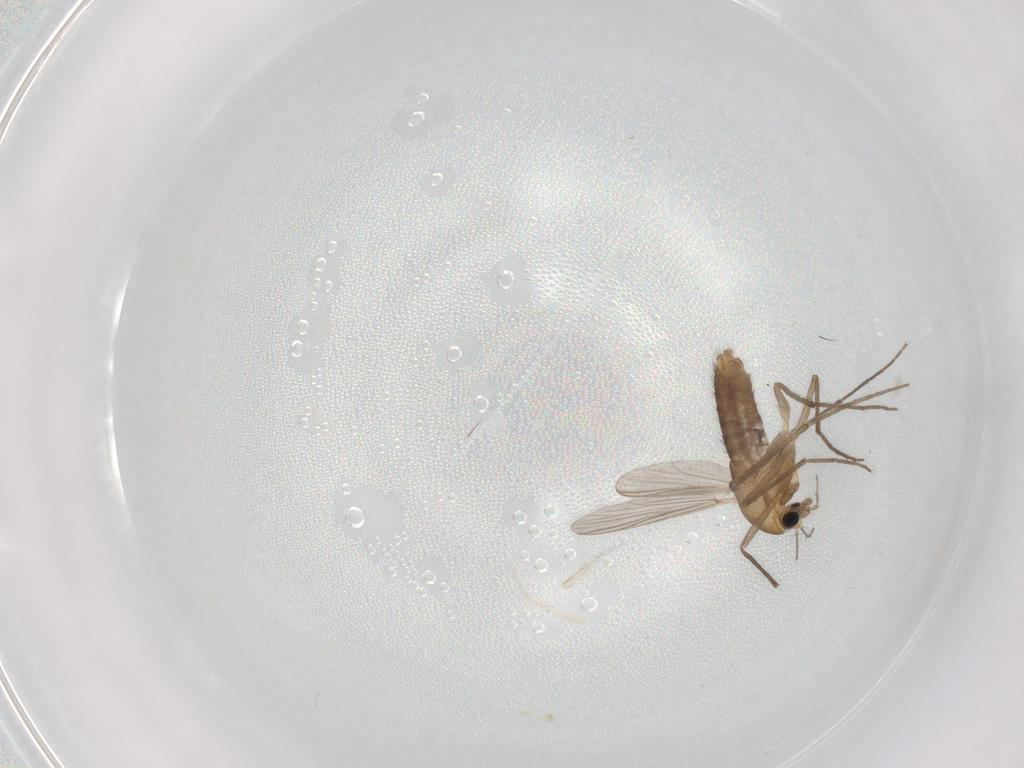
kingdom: Animalia
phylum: Arthropoda
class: Insecta
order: Diptera
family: Chironomidae
